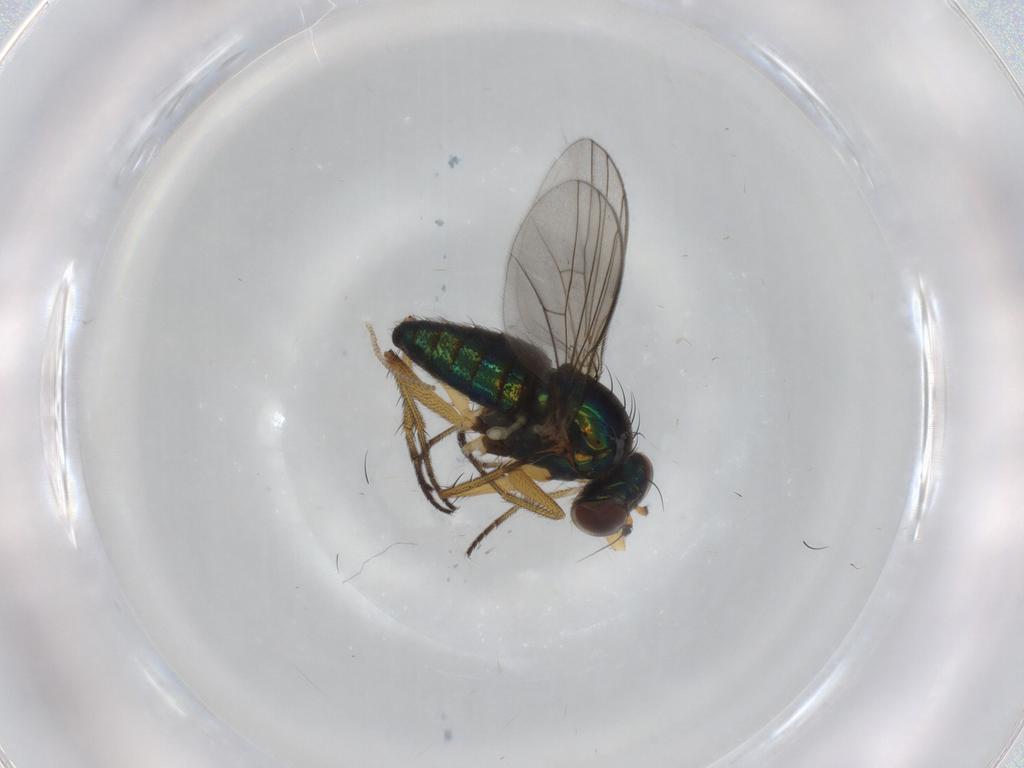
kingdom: Animalia
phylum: Arthropoda
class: Insecta
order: Diptera
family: Dolichopodidae
